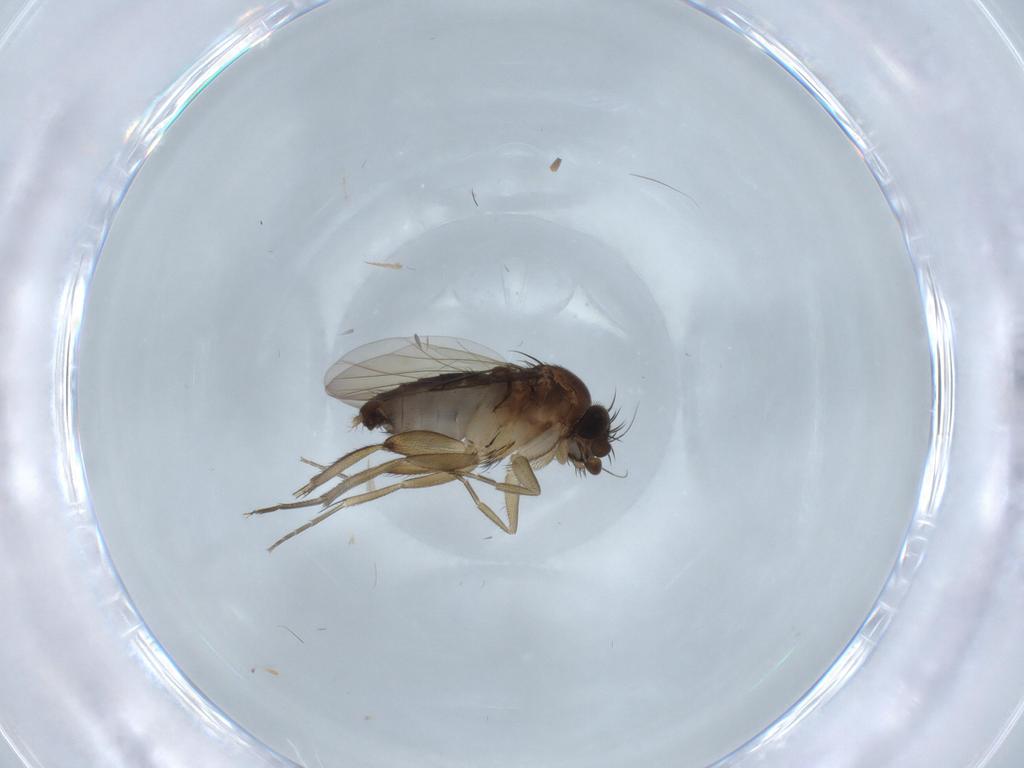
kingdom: Animalia
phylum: Arthropoda
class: Insecta
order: Diptera
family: Phoridae
